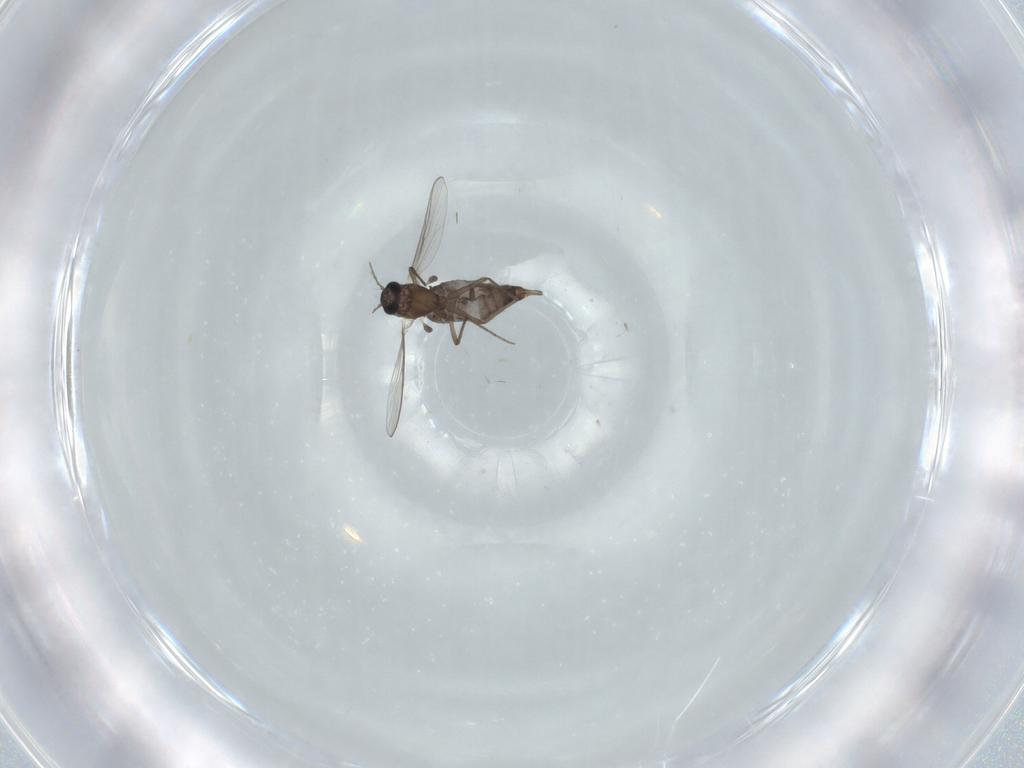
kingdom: Animalia
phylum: Arthropoda
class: Insecta
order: Diptera
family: Chironomidae
